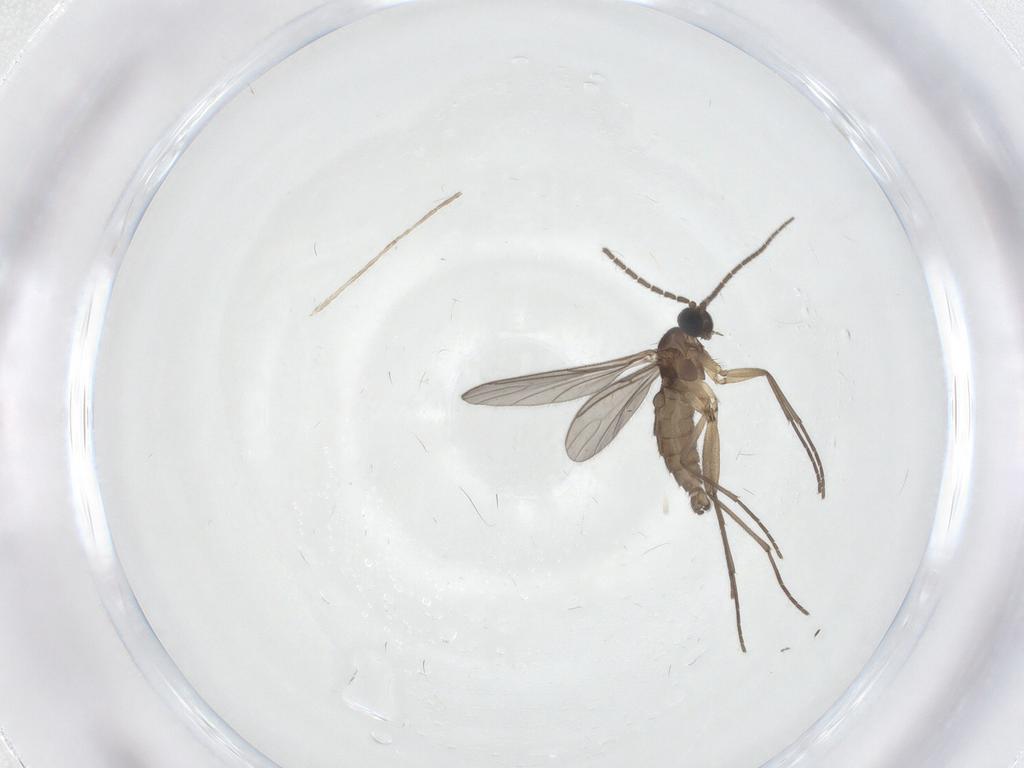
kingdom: Animalia
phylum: Arthropoda
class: Insecta
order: Diptera
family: Sciaridae
